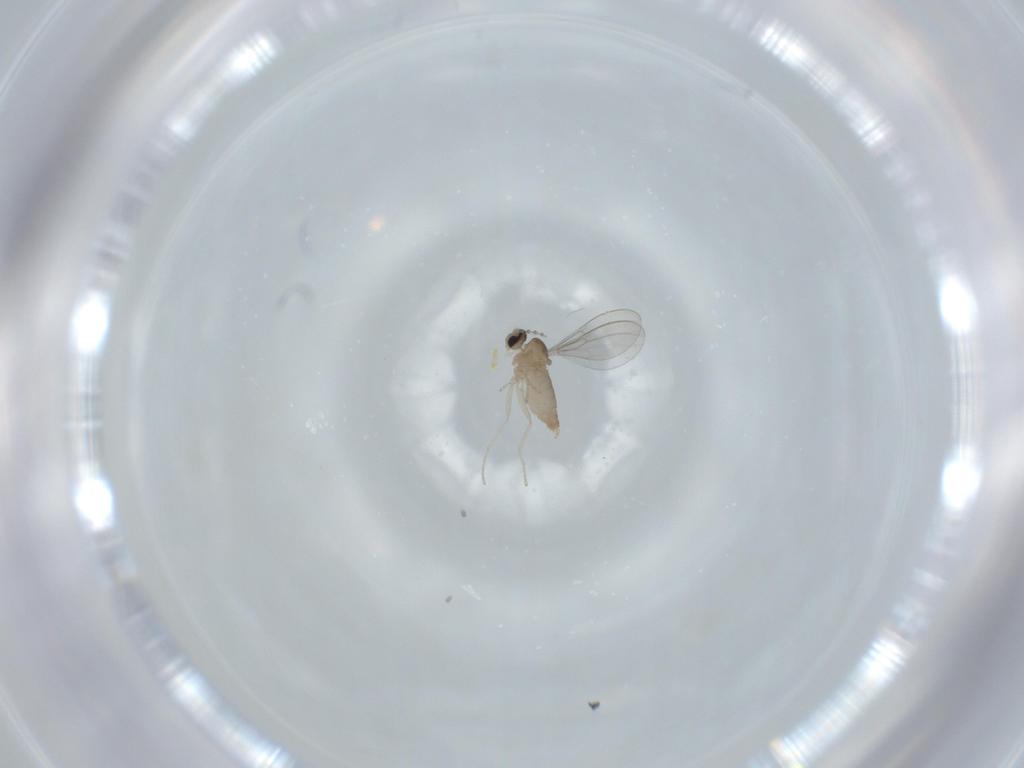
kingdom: Animalia
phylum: Arthropoda
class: Insecta
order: Diptera
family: Cecidomyiidae
